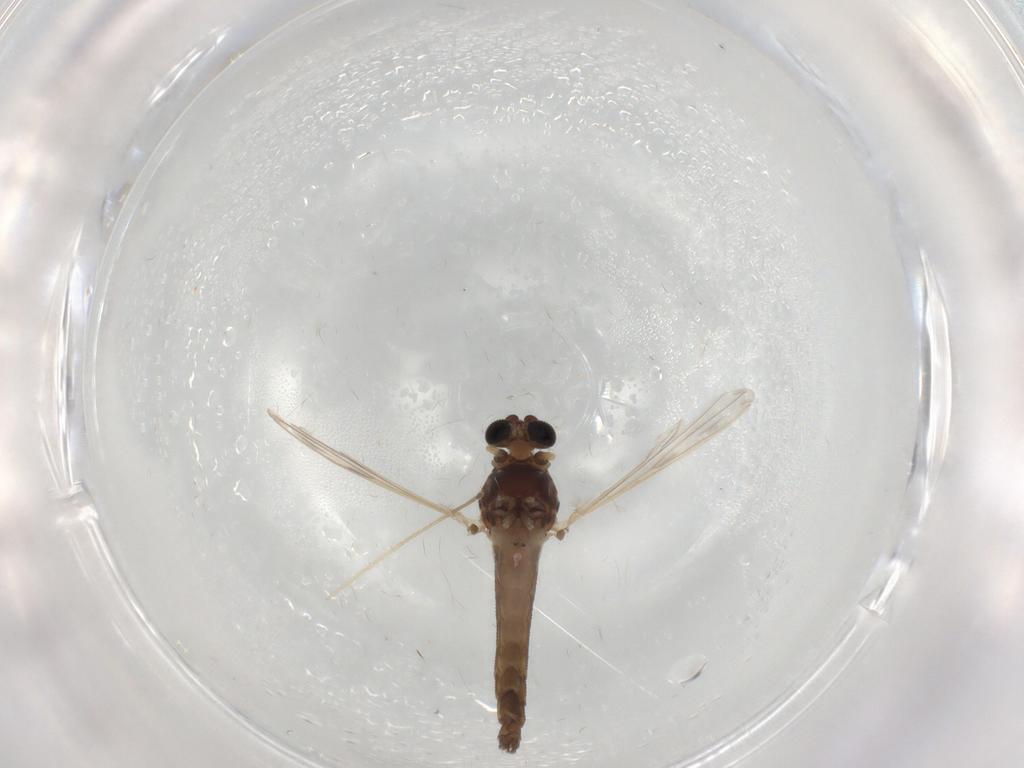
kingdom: Animalia
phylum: Arthropoda
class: Insecta
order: Diptera
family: Chironomidae
